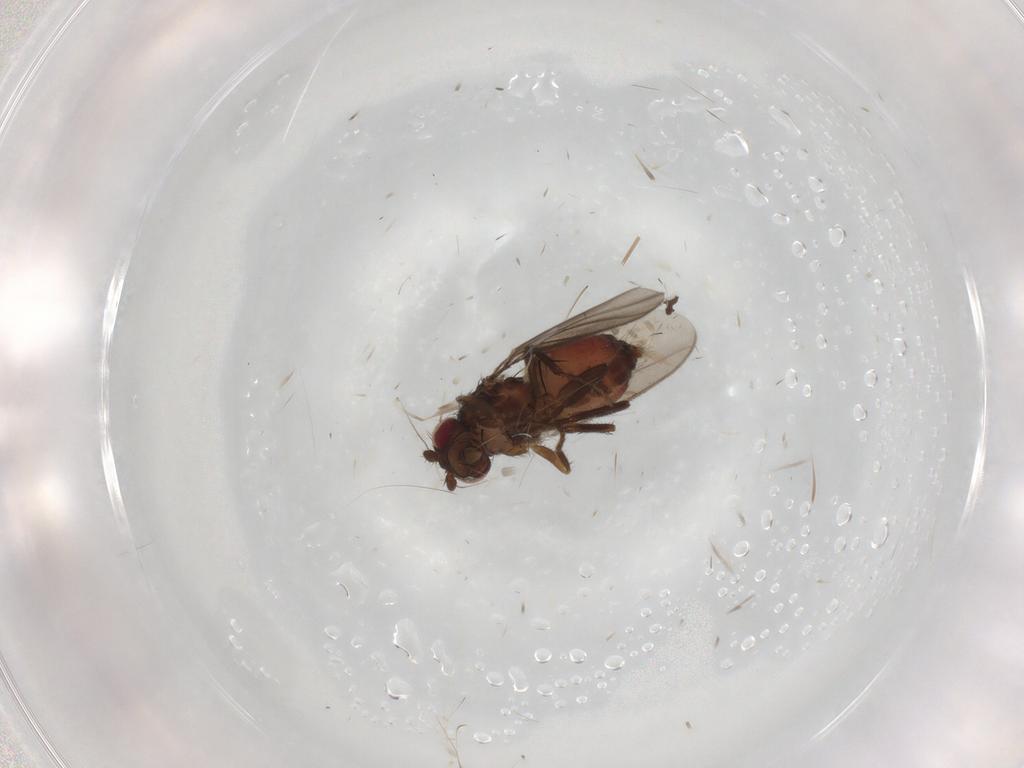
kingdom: Animalia
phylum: Arthropoda
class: Insecta
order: Diptera
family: Sphaeroceridae
